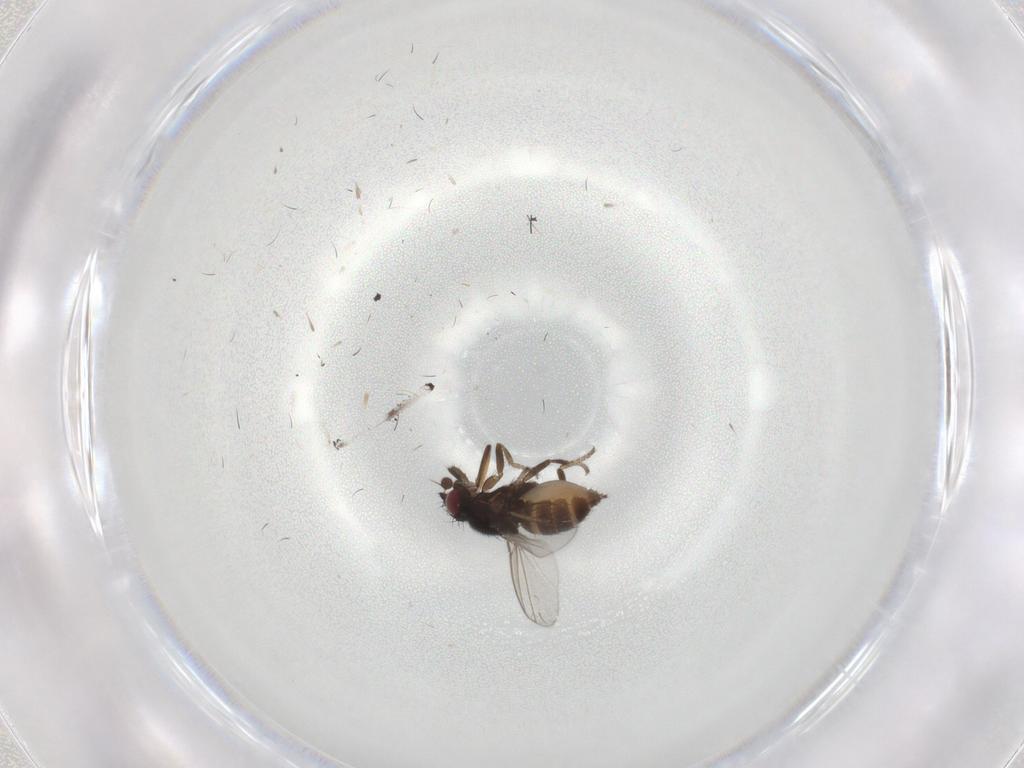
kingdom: Animalia
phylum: Arthropoda
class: Insecta
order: Diptera
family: Milichiidae
